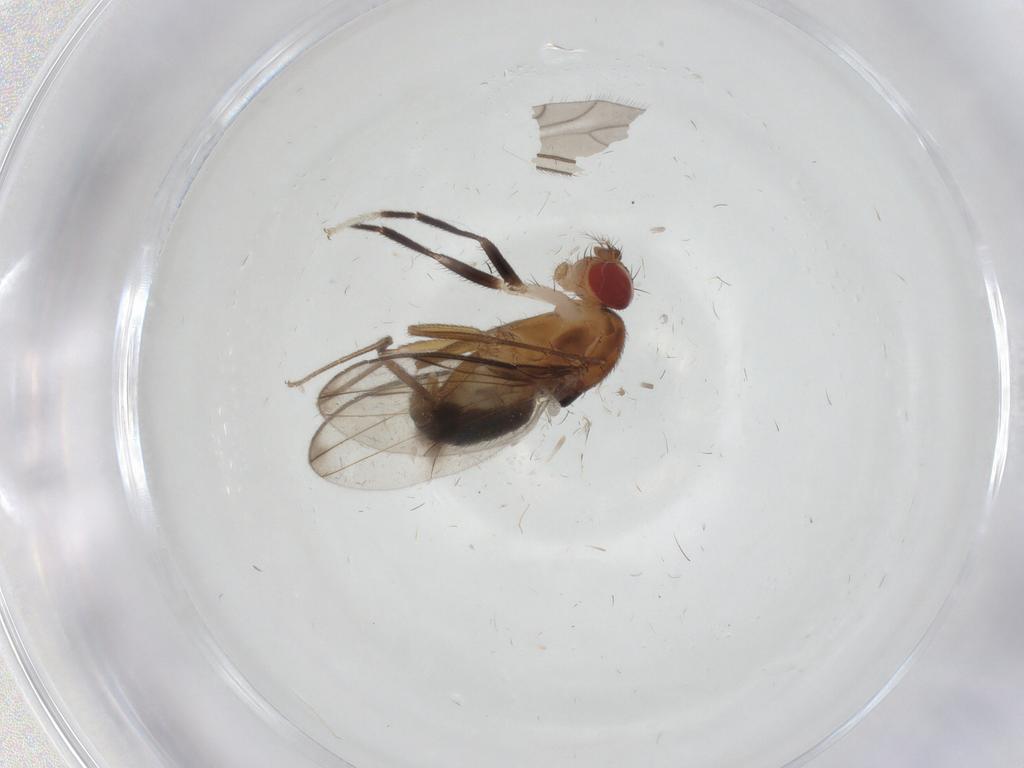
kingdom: Animalia
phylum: Arthropoda
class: Insecta
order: Diptera
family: Drosophilidae
